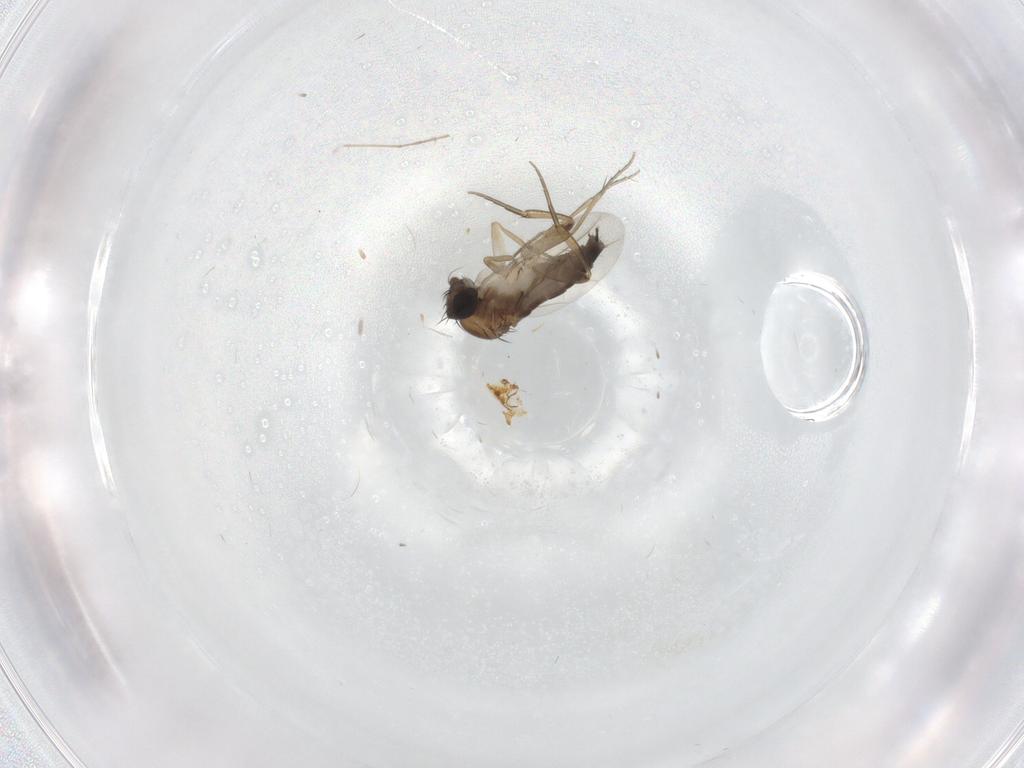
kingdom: Animalia
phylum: Arthropoda
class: Insecta
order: Diptera
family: Phoridae
